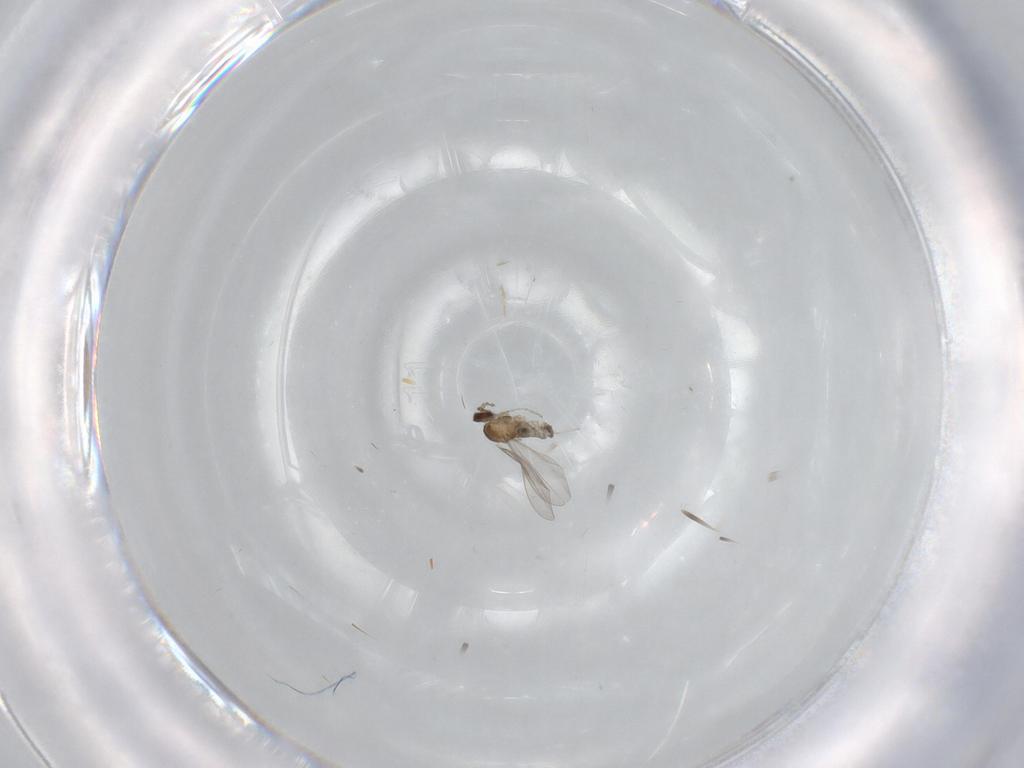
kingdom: Animalia
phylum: Arthropoda
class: Insecta
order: Diptera
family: Cecidomyiidae
